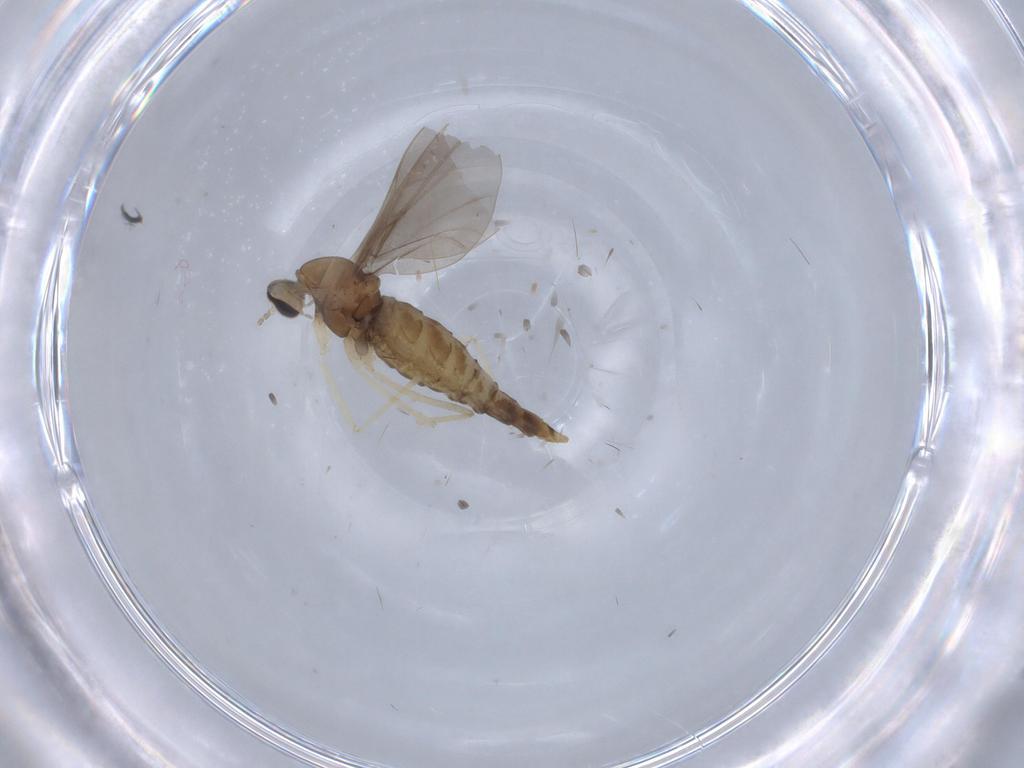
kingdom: Animalia
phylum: Arthropoda
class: Insecta
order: Diptera
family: Cecidomyiidae
